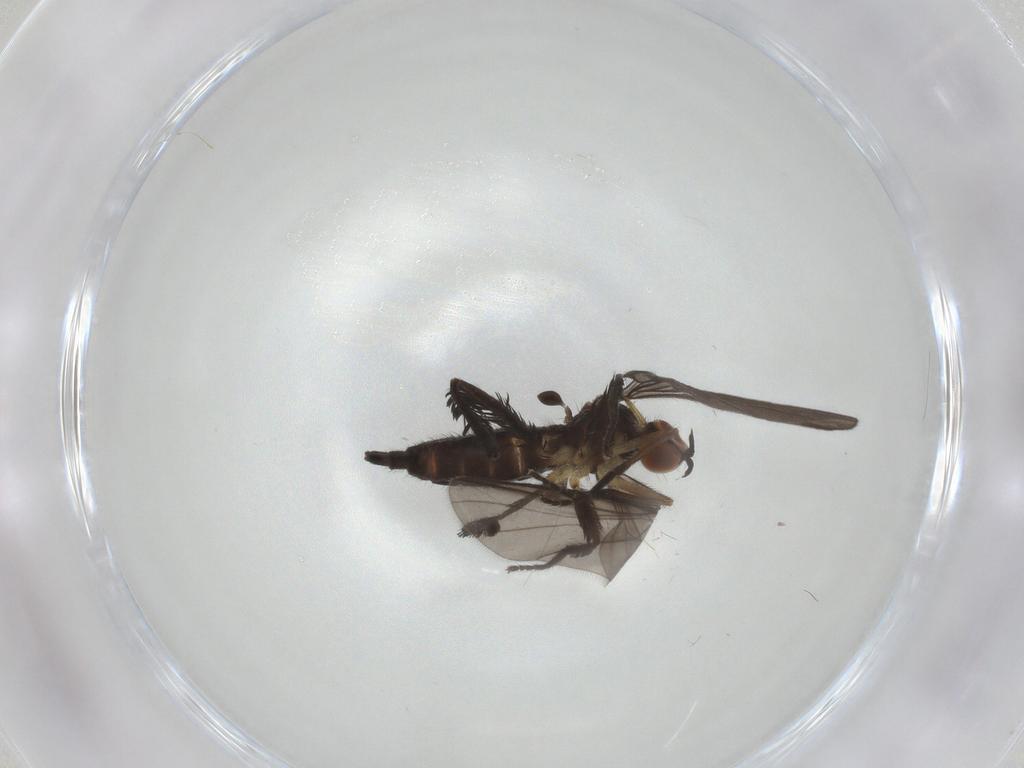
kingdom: Animalia
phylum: Arthropoda
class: Insecta
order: Diptera
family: Empididae
